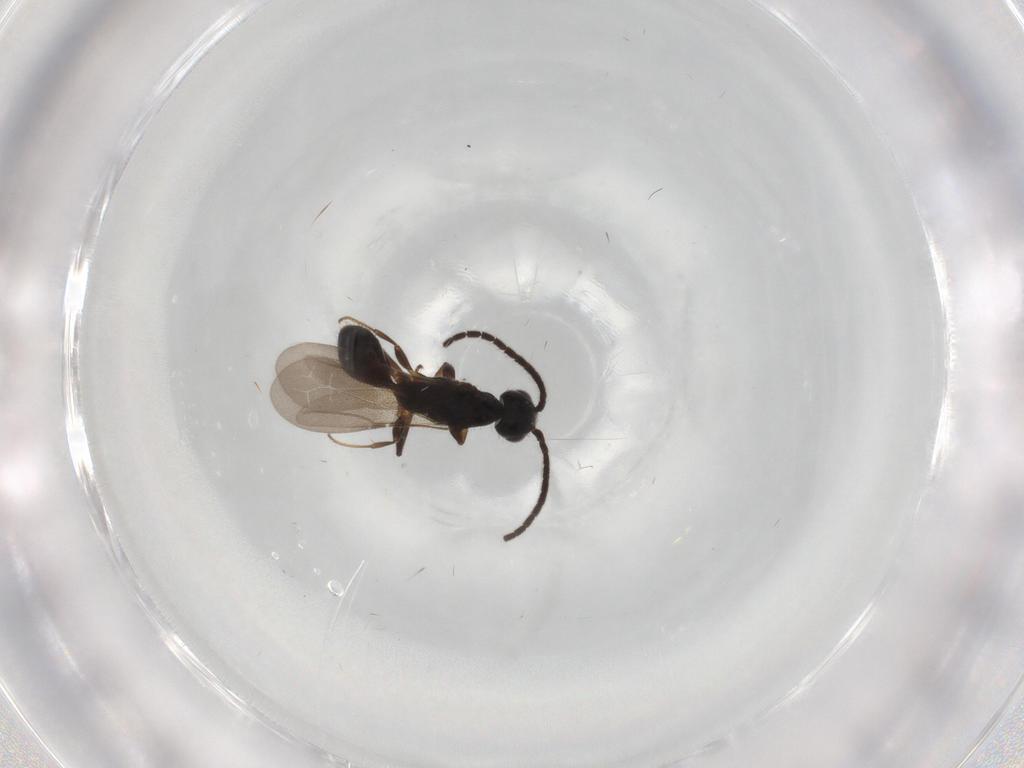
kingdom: Animalia
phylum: Arthropoda
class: Insecta
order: Hymenoptera
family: Bethylidae
